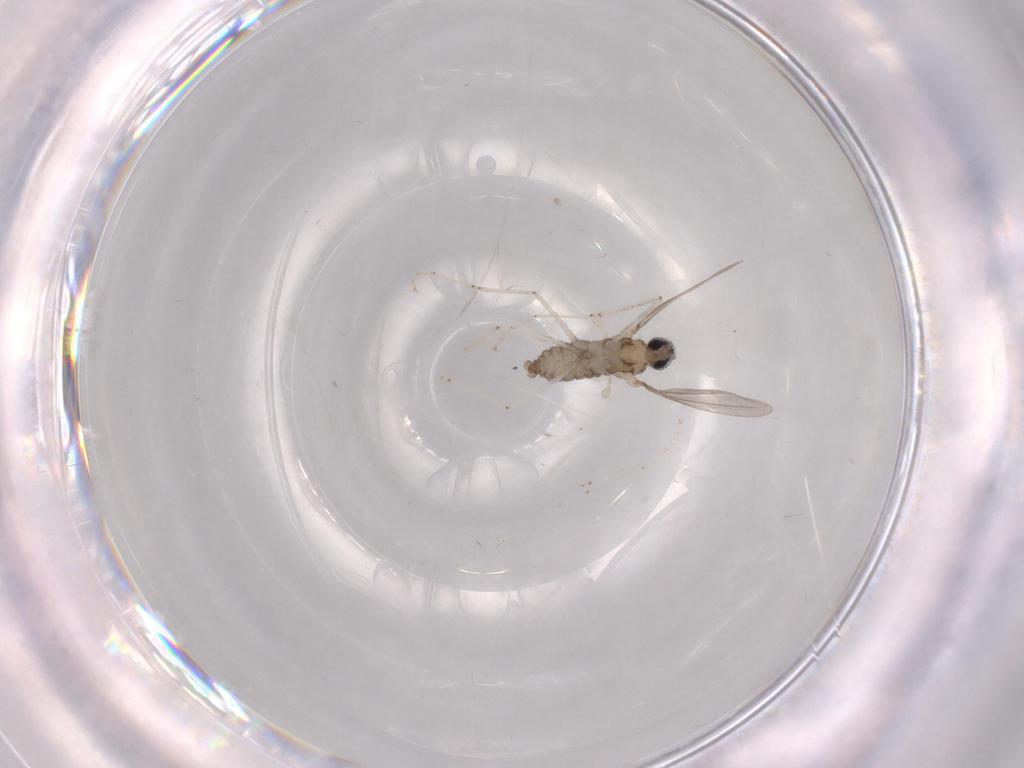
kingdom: Animalia
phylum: Arthropoda
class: Insecta
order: Diptera
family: Cecidomyiidae
